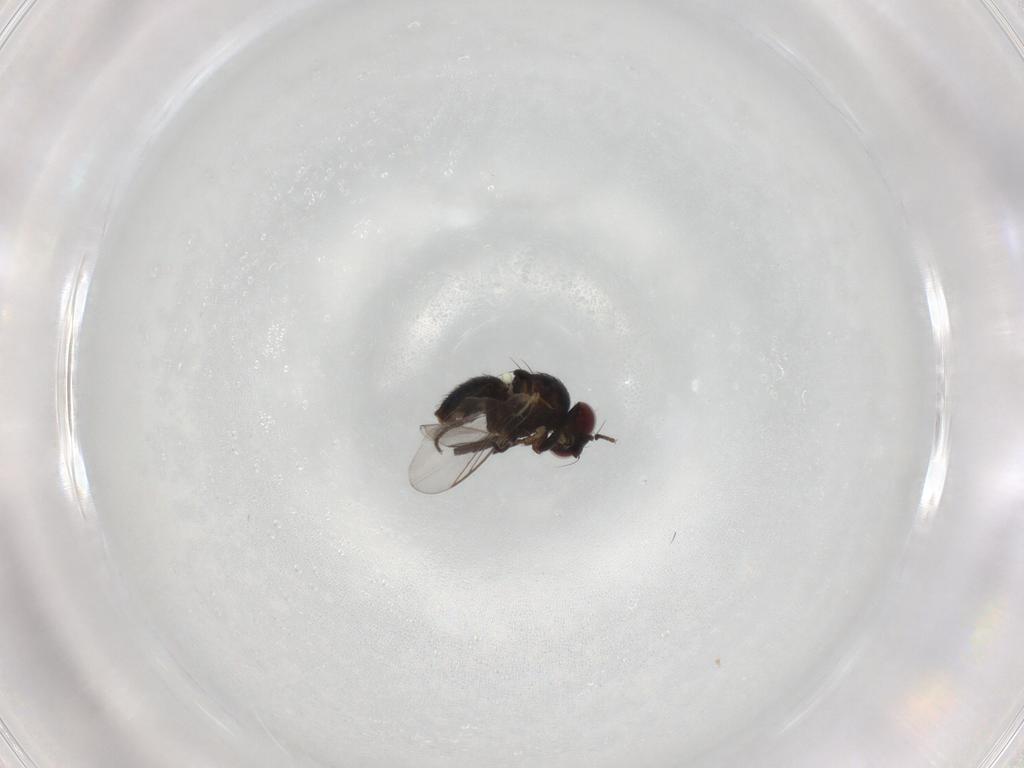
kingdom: Animalia
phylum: Arthropoda
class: Insecta
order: Diptera
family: Agromyzidae
